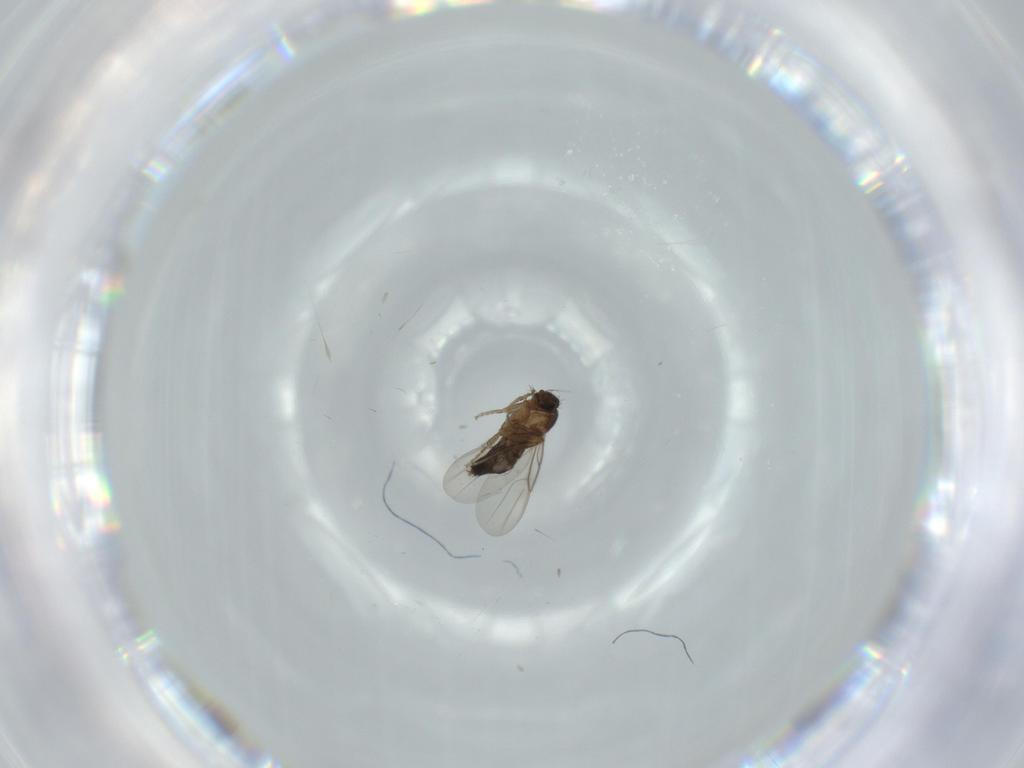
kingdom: Animalia
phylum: Arthropoda
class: Insecta
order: Diptera
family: Phoridae
